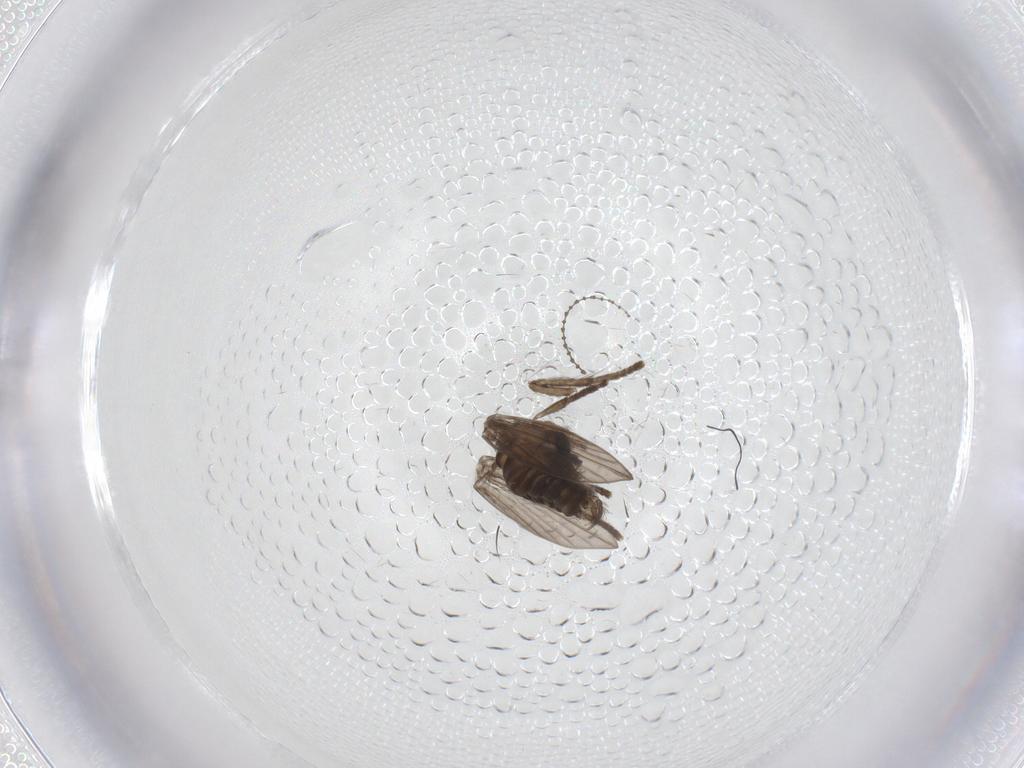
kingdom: Animalia
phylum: Arthropoda
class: Insecta
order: Diptera
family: Psychodidae
